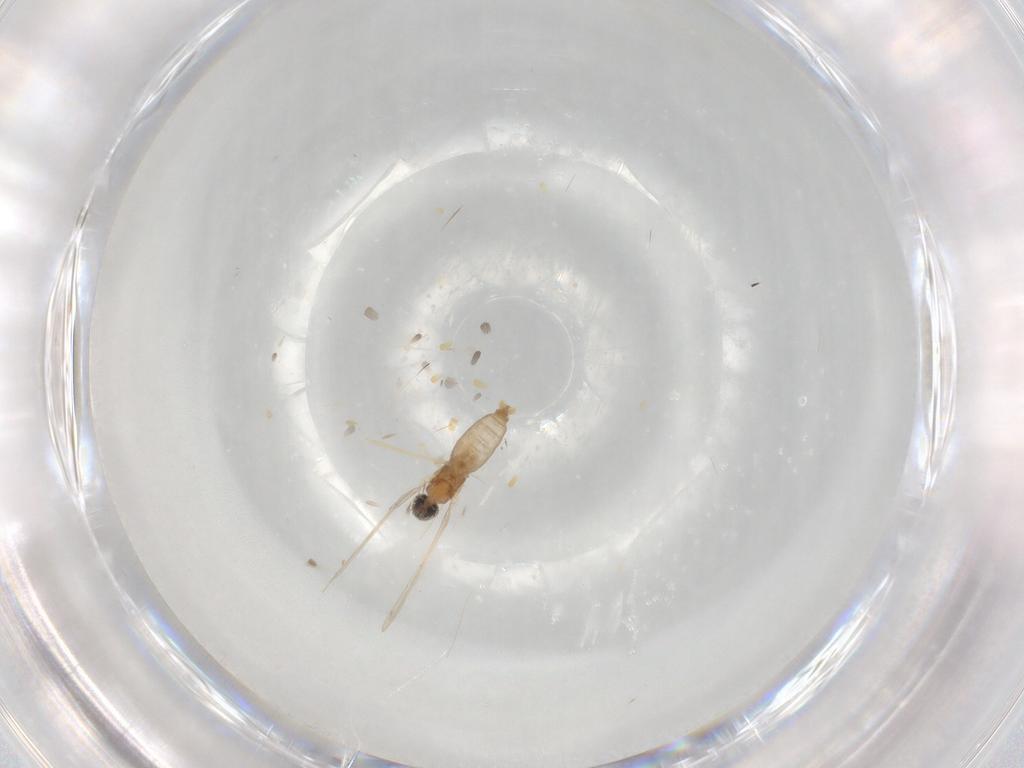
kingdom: Animalia
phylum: Arthropoda
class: Insecta
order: Diptera
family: Cecidomyiidae
